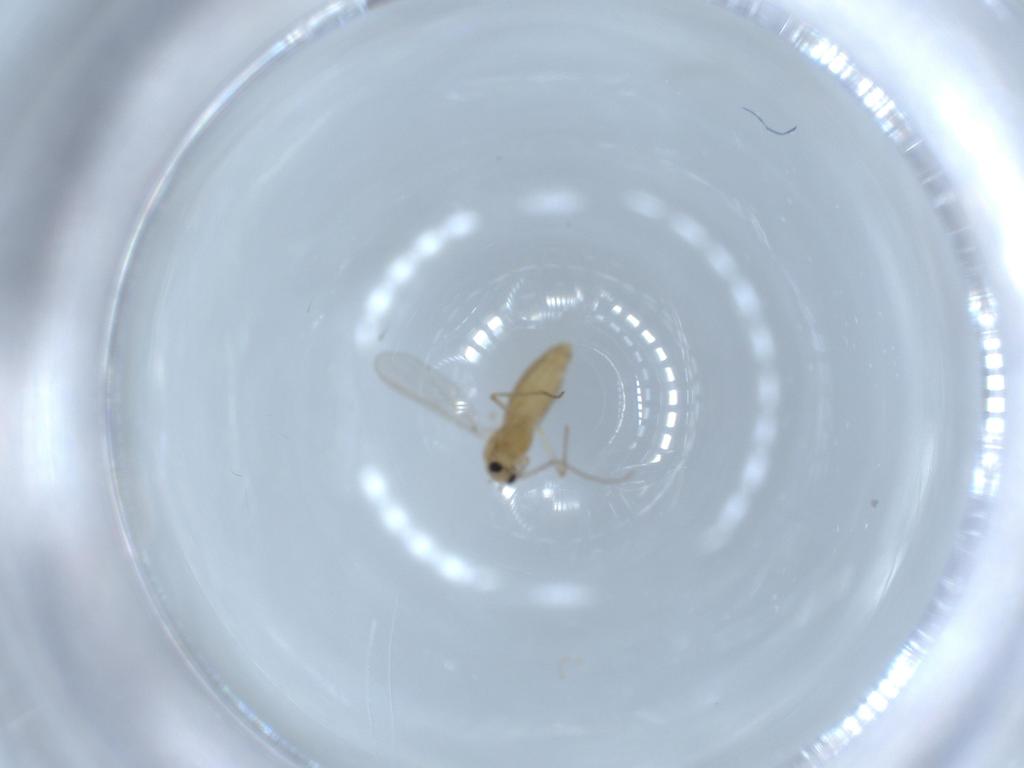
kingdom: Animalia
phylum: Arthropoda
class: Insecta
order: Diptera
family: Chironomidae
